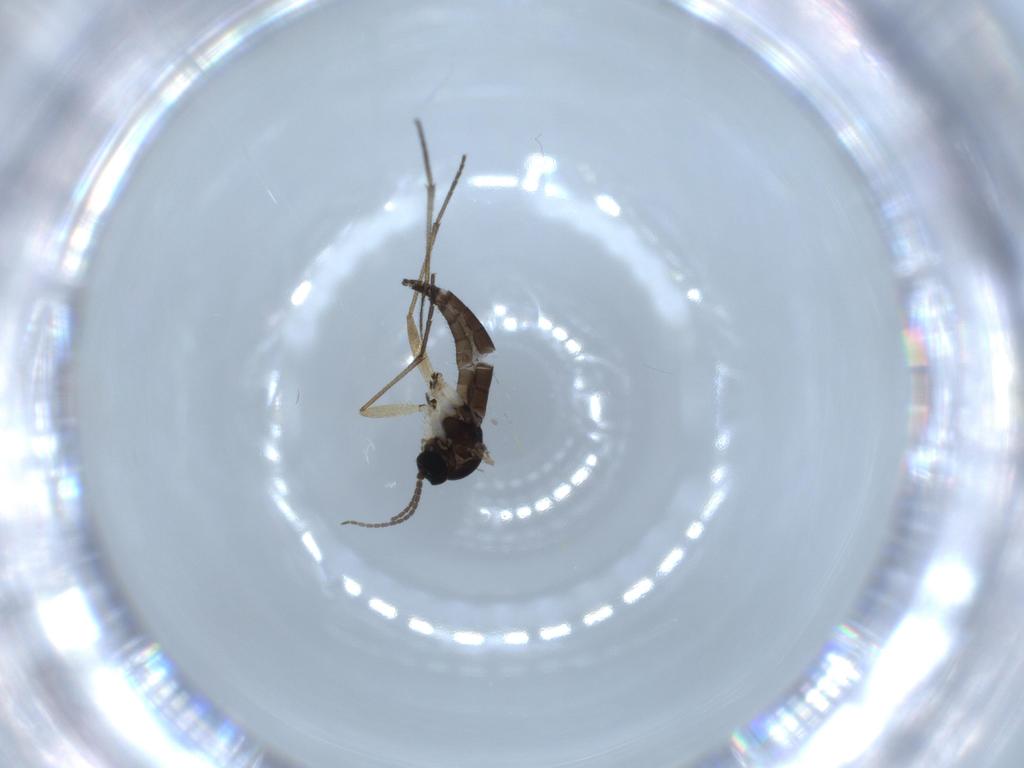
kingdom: Animalia
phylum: Arthropoda
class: Insecta
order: Diptera
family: Sciaridae
